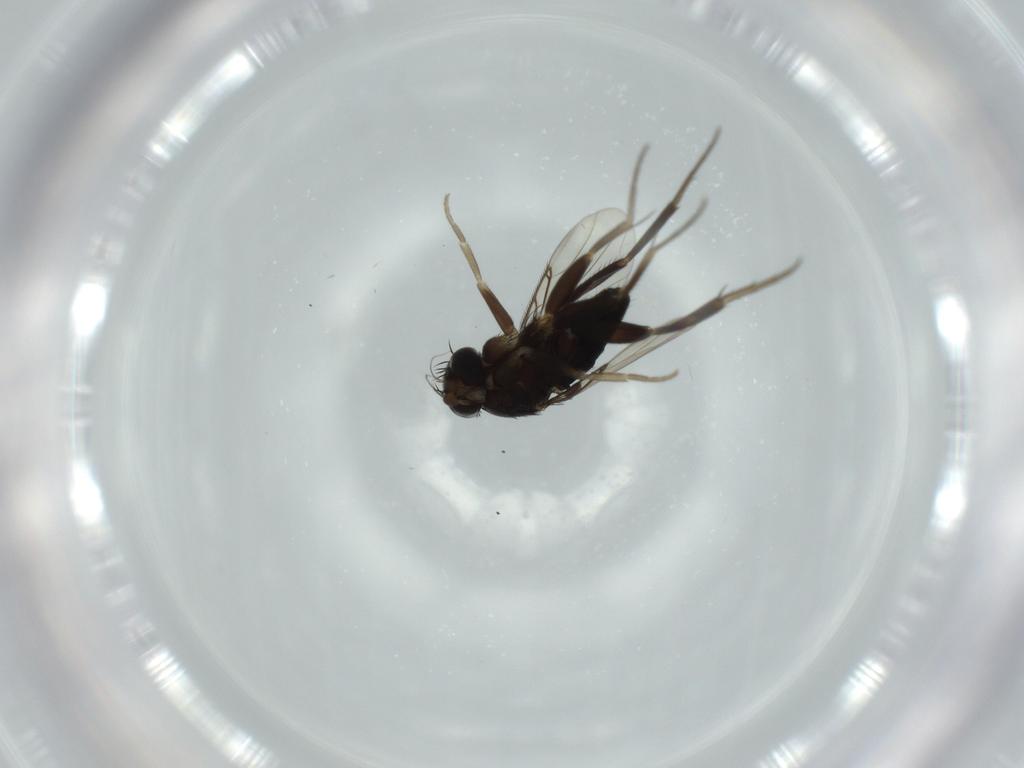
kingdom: Animalia
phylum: Arthropoda
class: Insecta
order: Diptera
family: Phoridae
